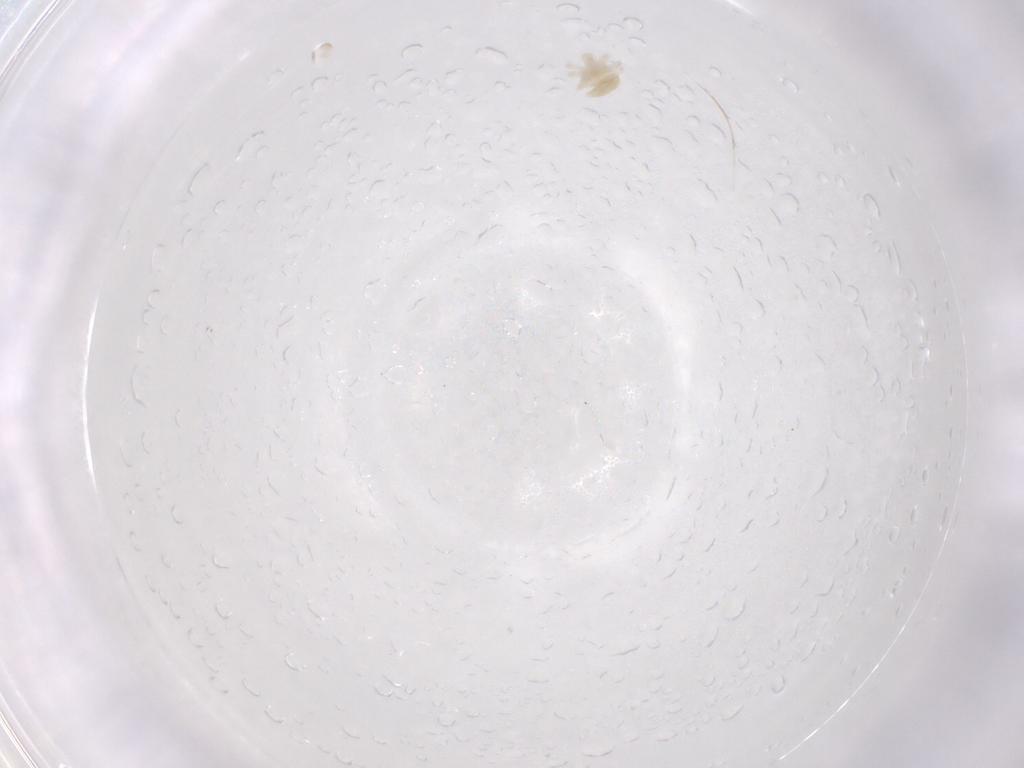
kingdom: Animalia
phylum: Arthropoda
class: Arachnida
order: Trombidiformes
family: Anystidae
